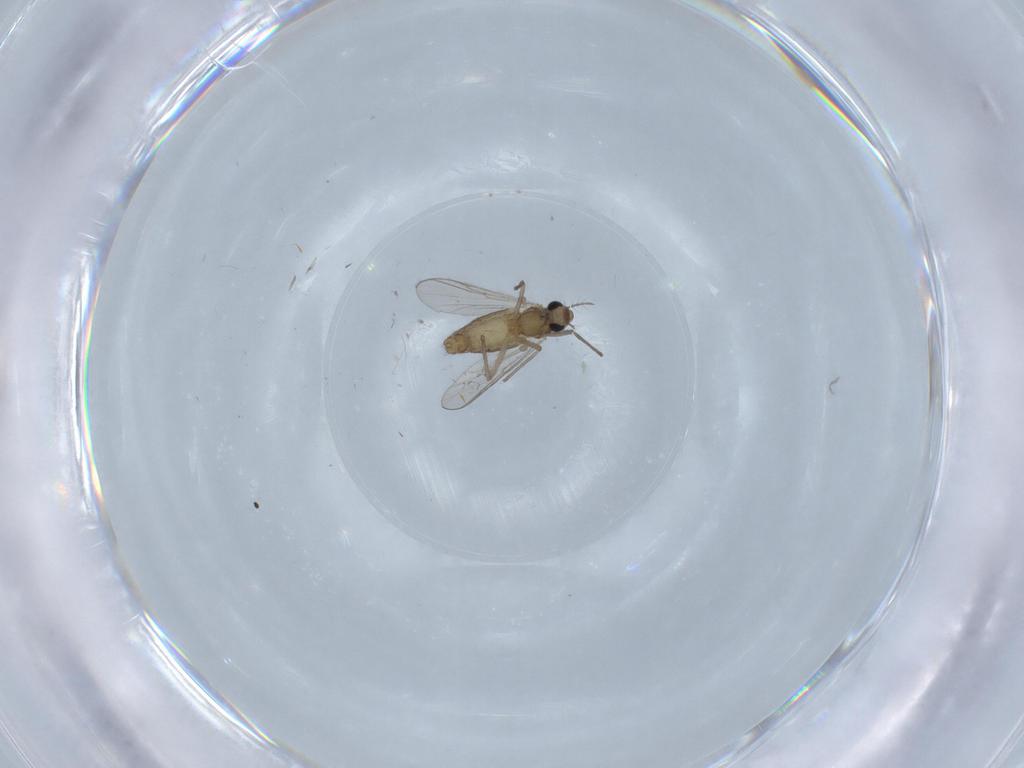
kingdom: Animalia
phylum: Arthropoda
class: Insecta
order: Diptera
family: Chironomidae
